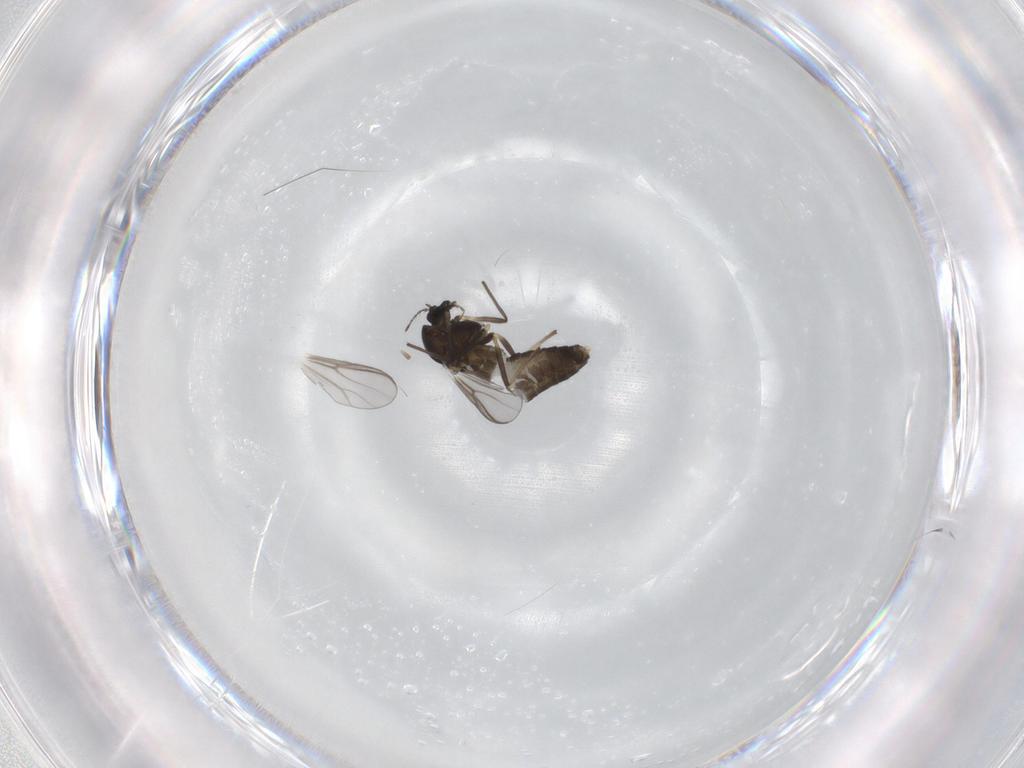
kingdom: Animalia
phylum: Arthropoda
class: Insecta
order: Diptera
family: Chironomidae
